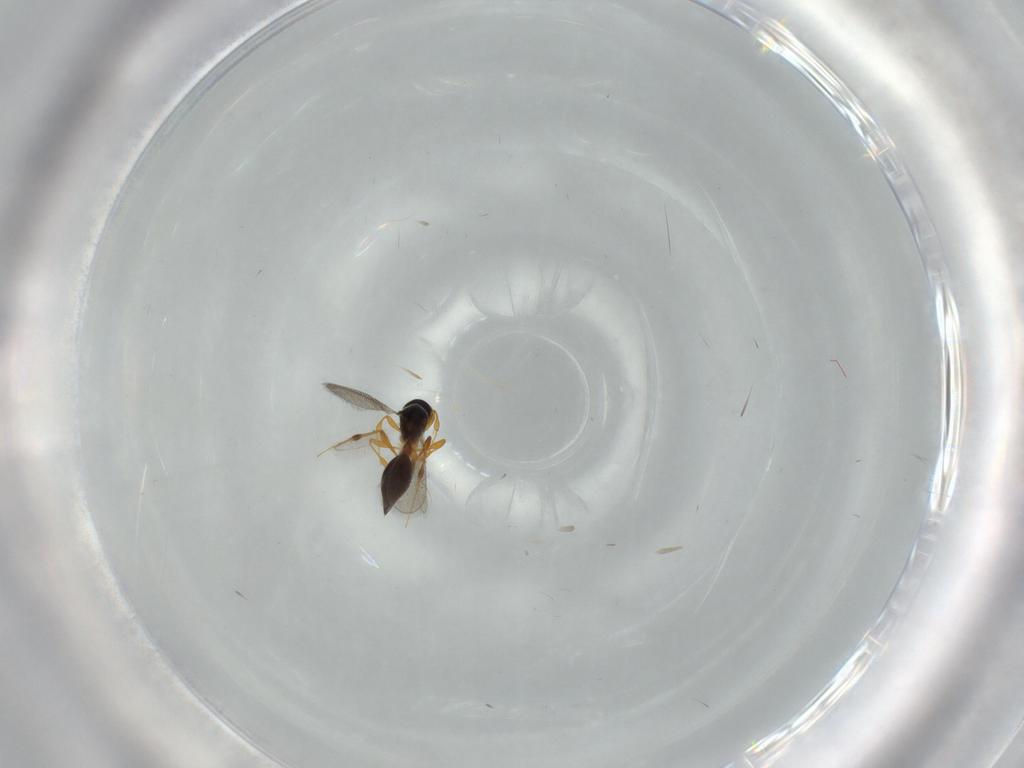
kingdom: Animalia
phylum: Arthropoda
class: Insecta
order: Hymenoptera
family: Platygastridae
